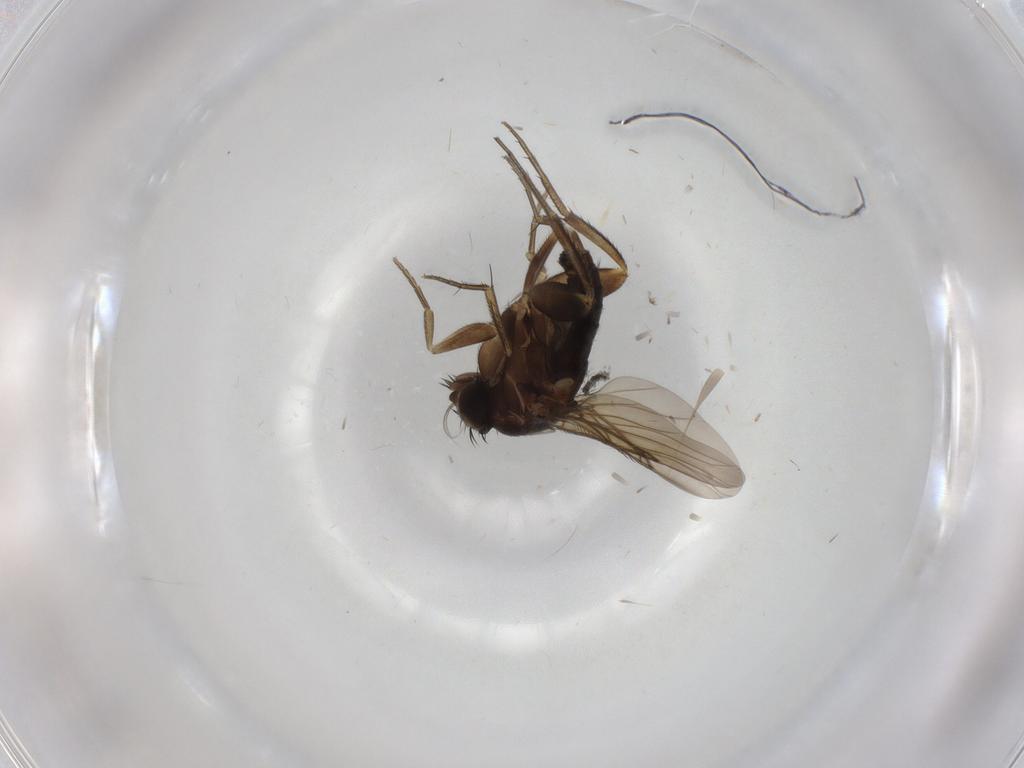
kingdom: Animalia
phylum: Arthropoda
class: Insecta
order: Diptera
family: Phoridae
